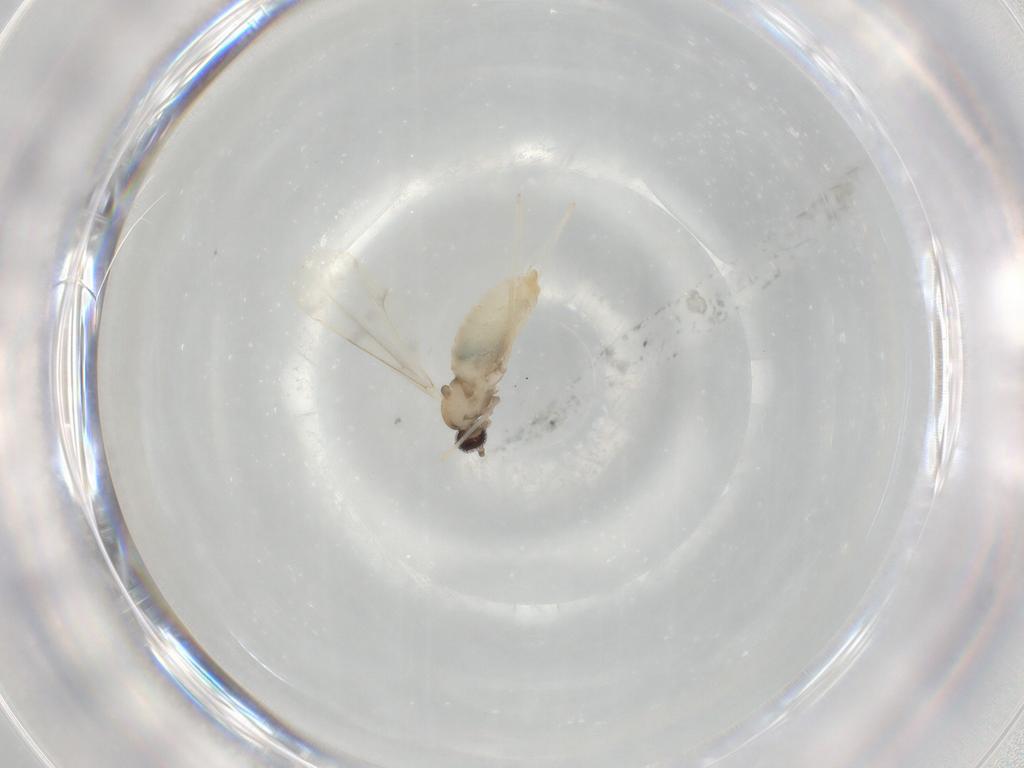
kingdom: Animalia
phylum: Arthropoda
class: Insecta
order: Diptera
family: Cecidomyiidae
